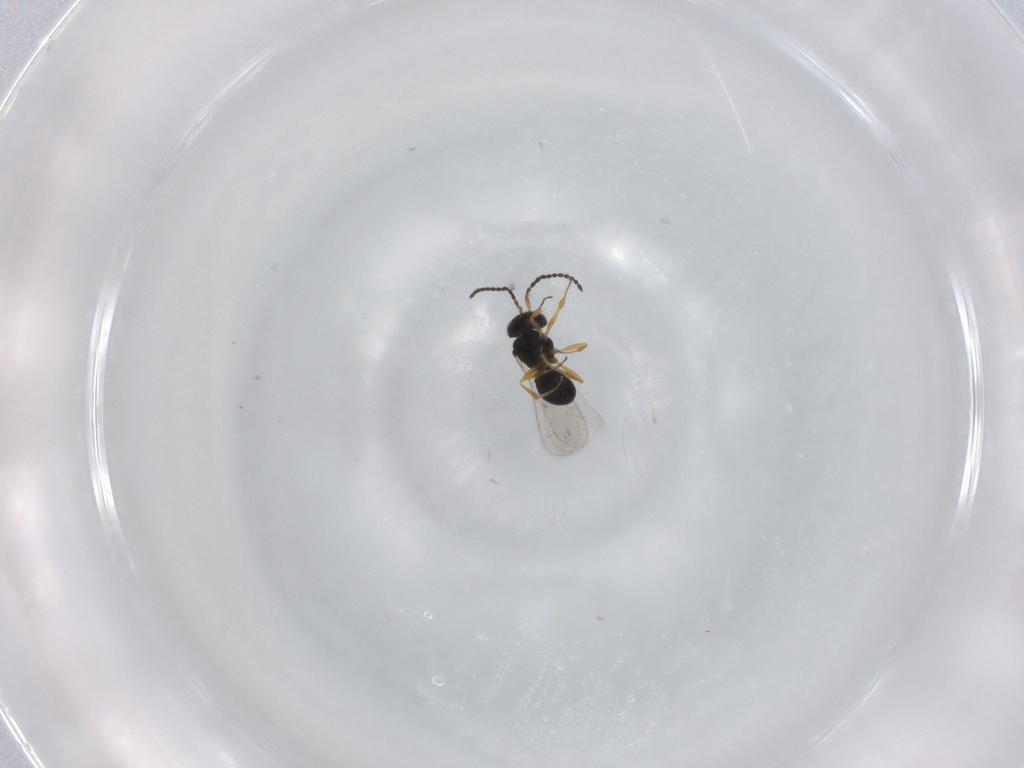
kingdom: Animalia
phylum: Arthropoda
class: Insecta
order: Hymenoptera
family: Scelionidae
